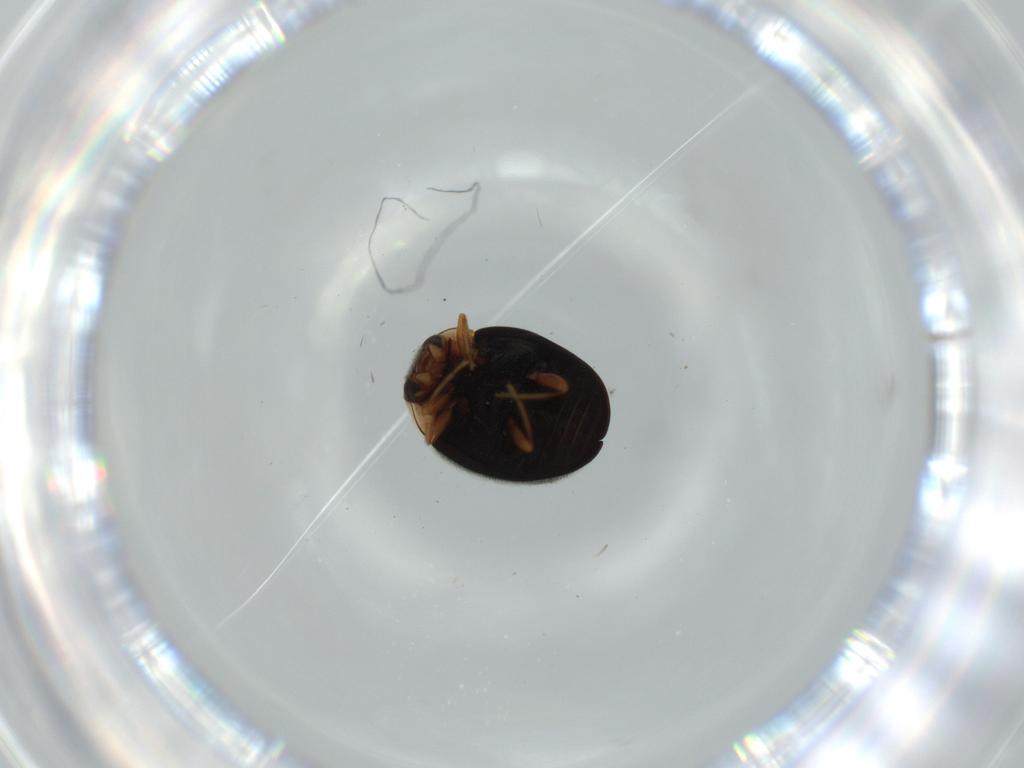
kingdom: Animalia
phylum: Arthropoda
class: Insecta
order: Coleoptera
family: Coccinellidae
